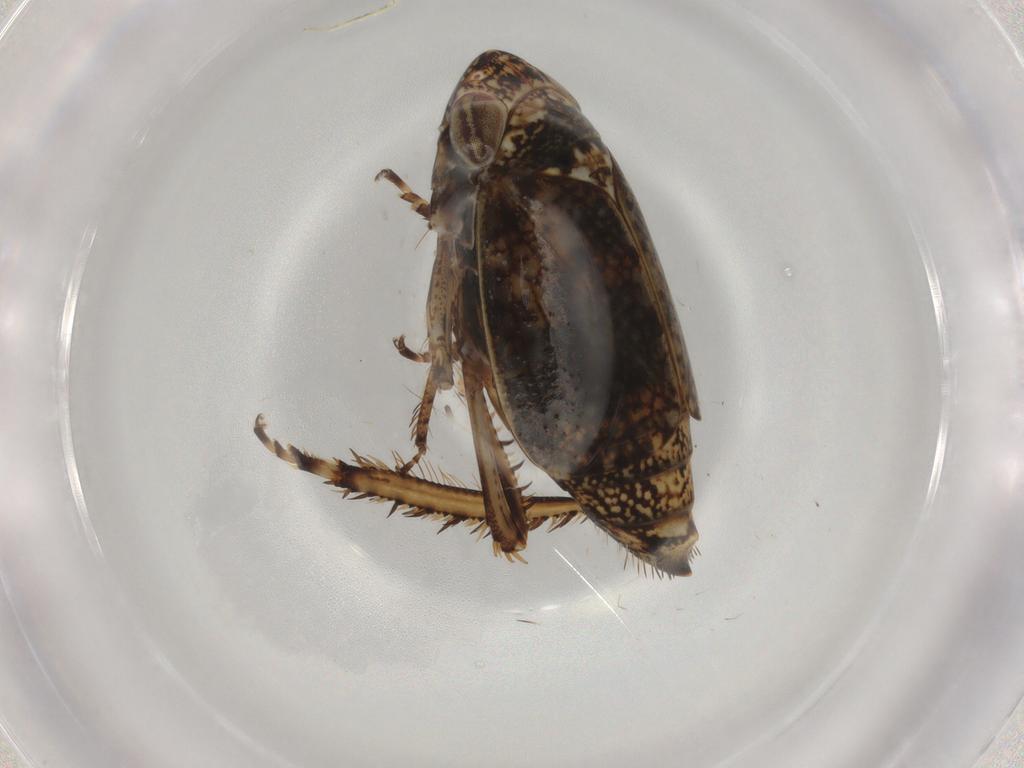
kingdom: Animalia
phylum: Arthropoda
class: Insecta
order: Hemiptera
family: Cicadellidae
